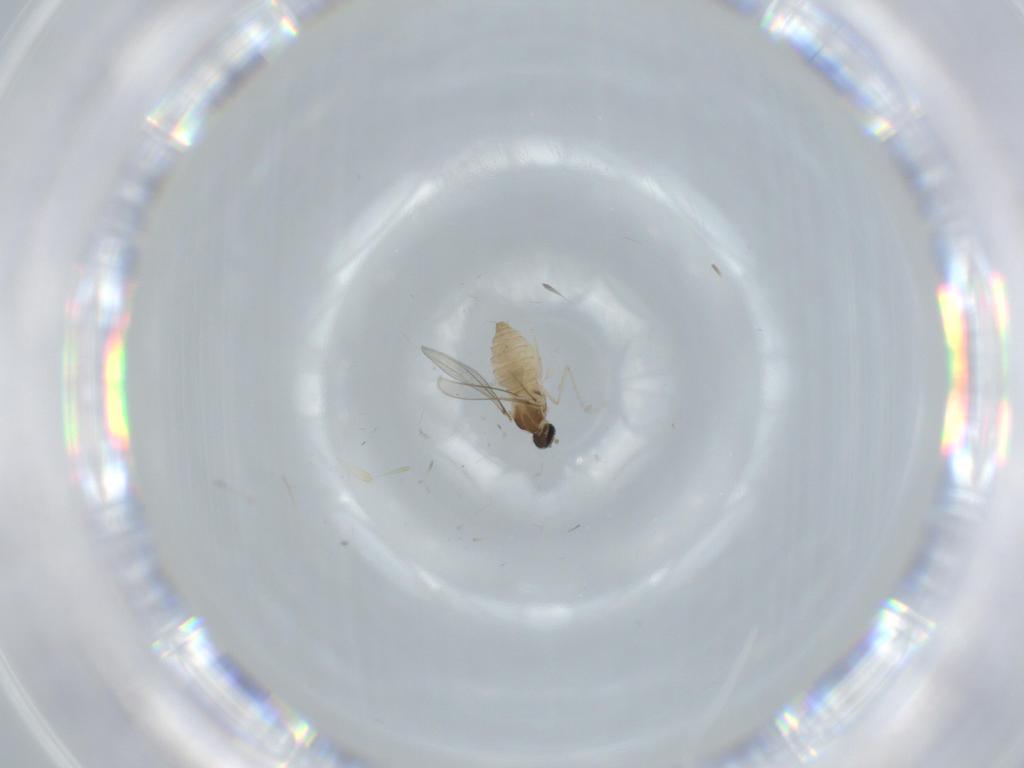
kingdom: Animalia
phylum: Arthropoda
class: Insecta
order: Diptera
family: Cecidomyiidae
